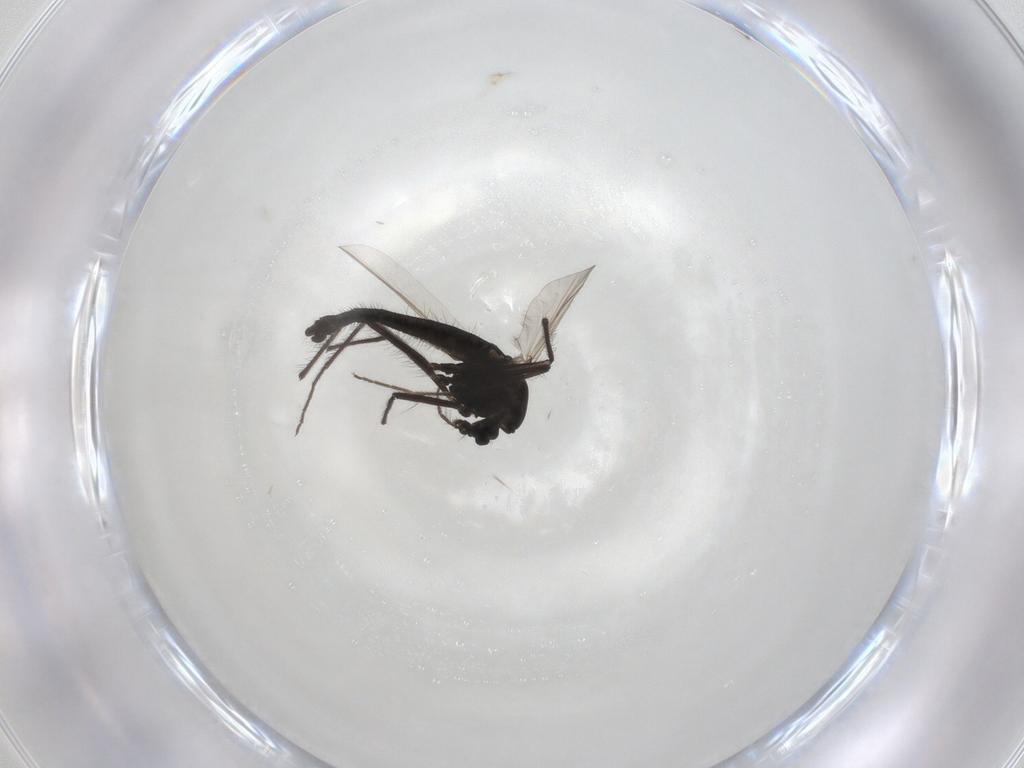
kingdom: Animalia
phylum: Arthropoda
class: Insecta
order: Diptera
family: Chironomidae
